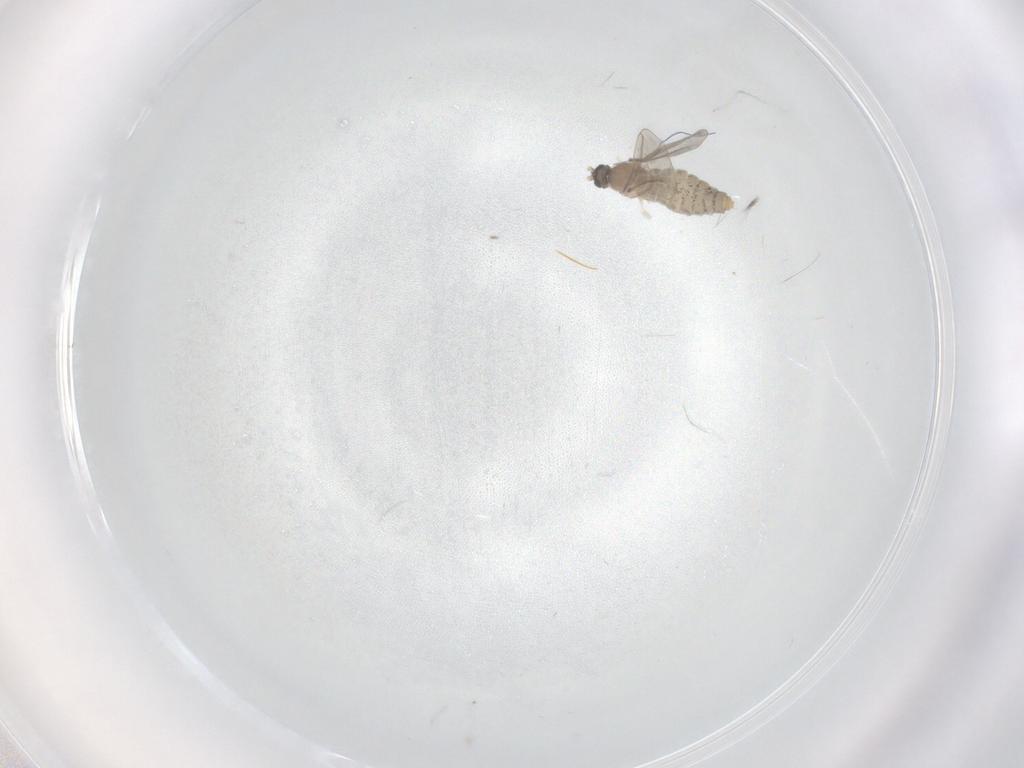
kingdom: Animalia
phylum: Arthropoda
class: Insecta
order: Diptera
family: Cecidomyiidae
